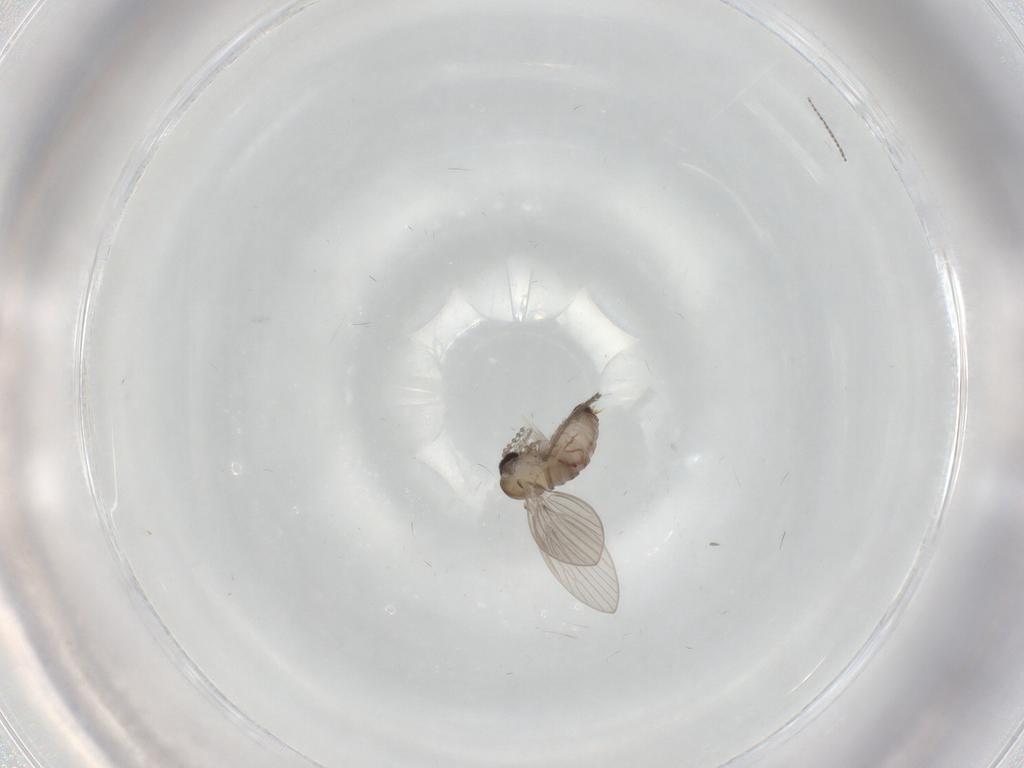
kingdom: Animalia
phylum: Arthropoda
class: Insecta
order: Diptera
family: Psychodidae
